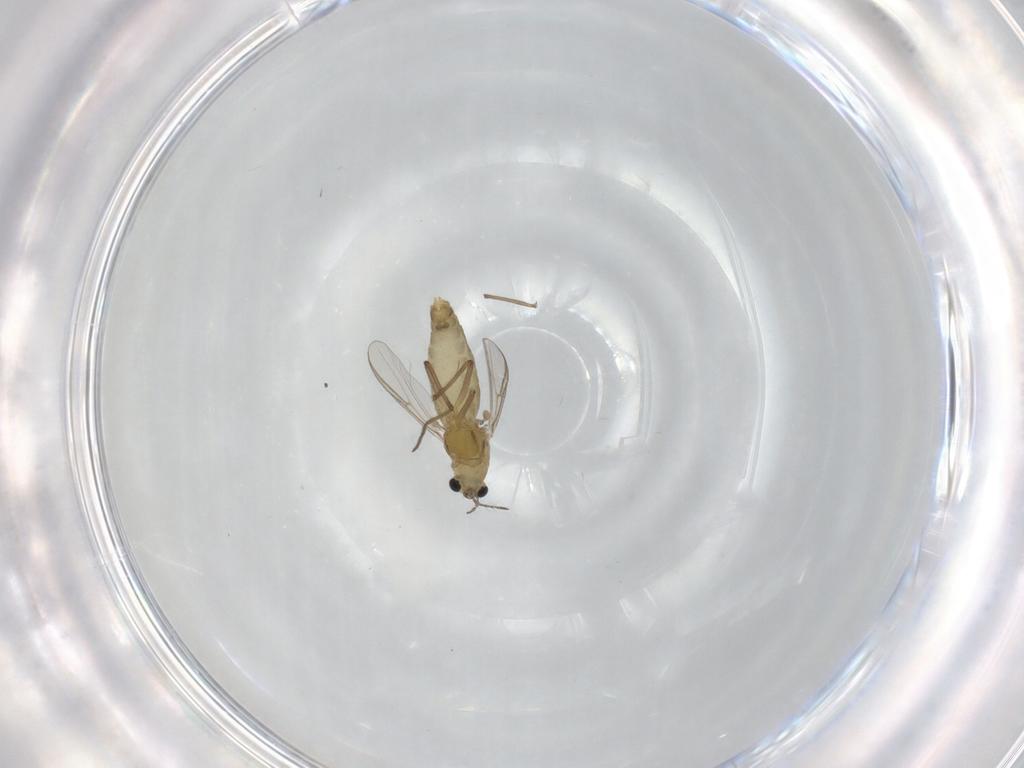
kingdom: Animalia
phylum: Arthropoda
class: Insecta
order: Diptera
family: Chironomidae
